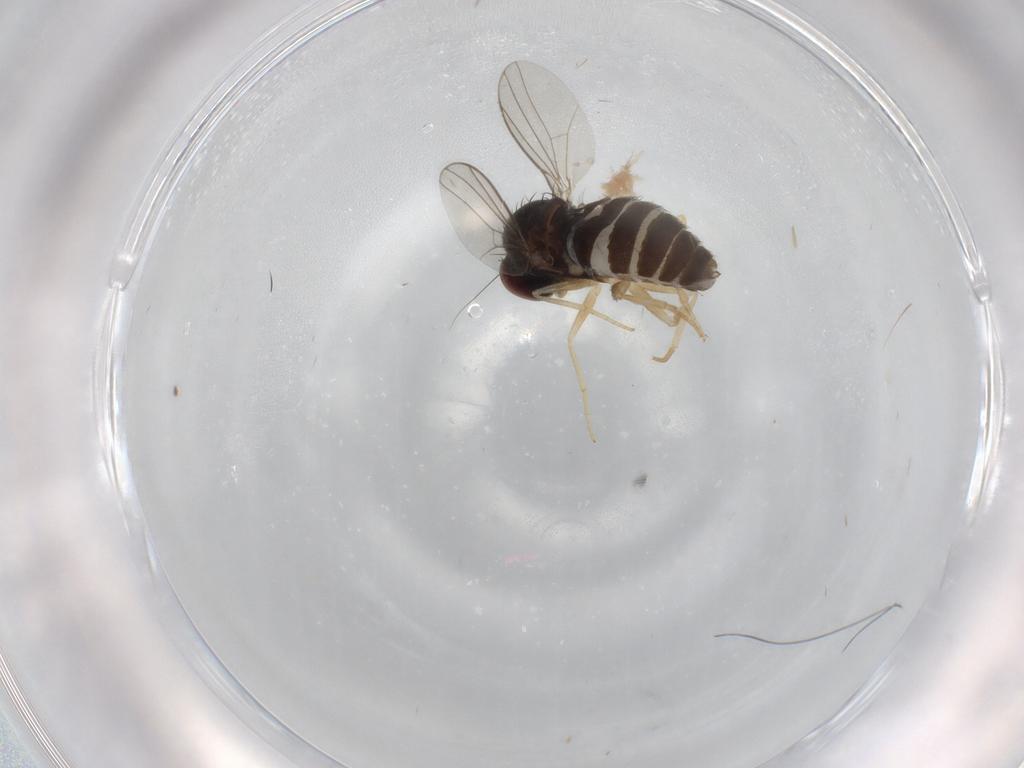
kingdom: Animalia
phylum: Arthropoda
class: Insecta
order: Diptera
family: Dolichopodidae
